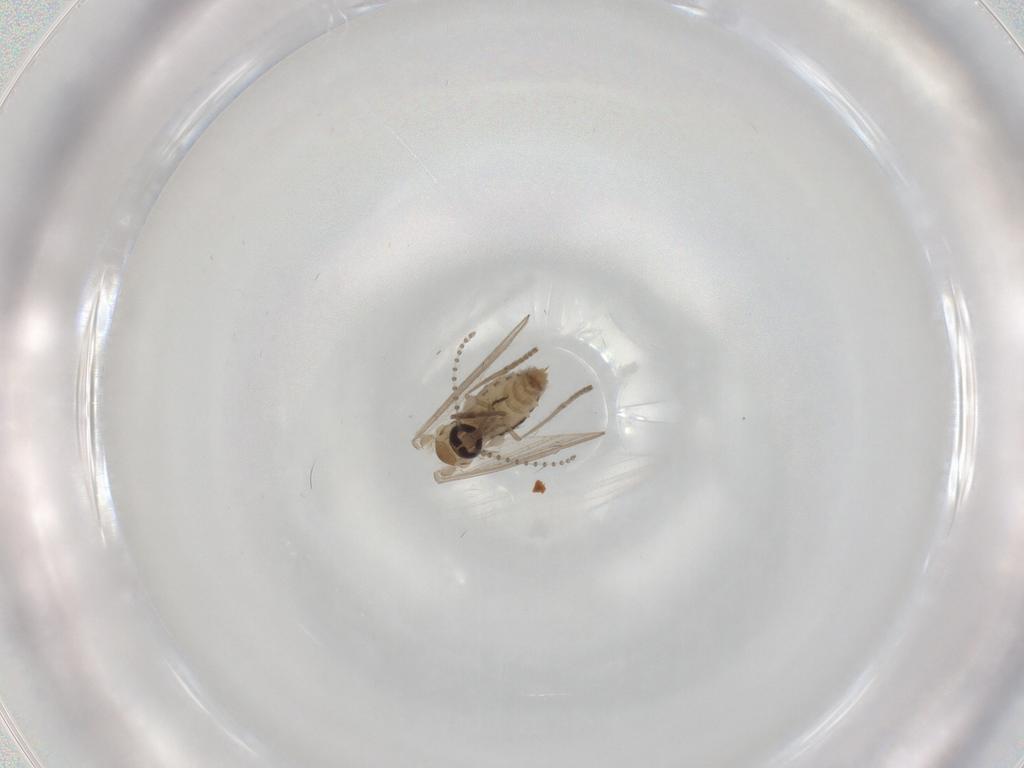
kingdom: Animalia
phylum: Arthropoda
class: Insecta
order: Diptera
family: Psychodidae
